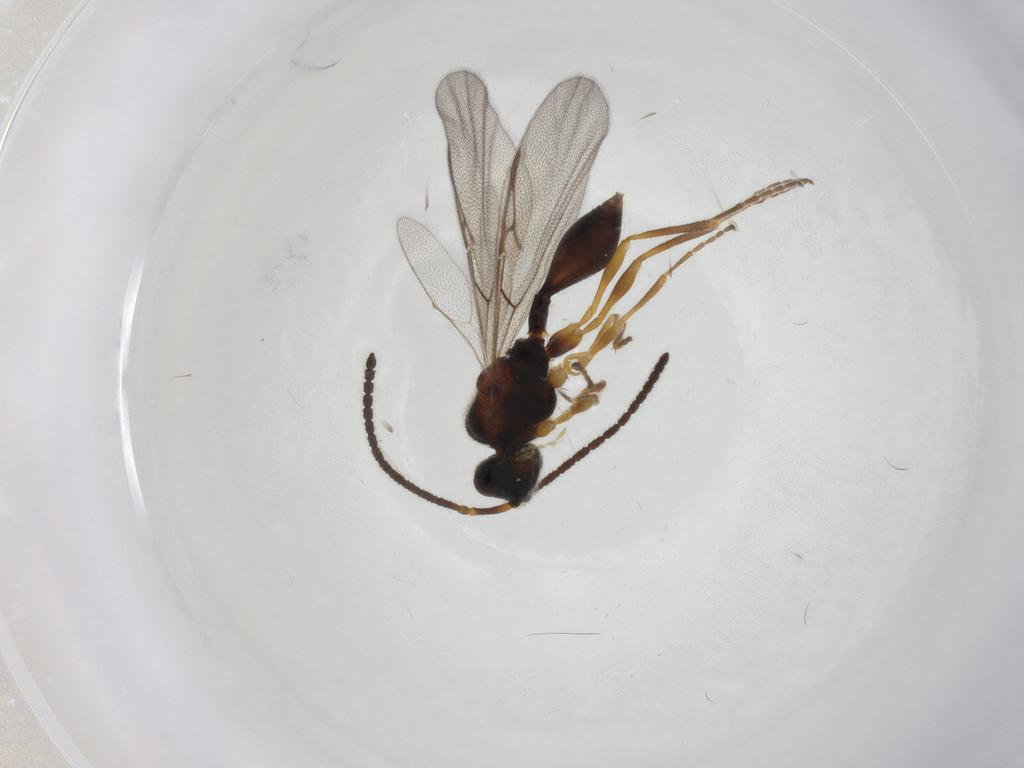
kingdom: Animalia
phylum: Arthropoda
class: Insecta
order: Hymenoptera
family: Diapriidae
